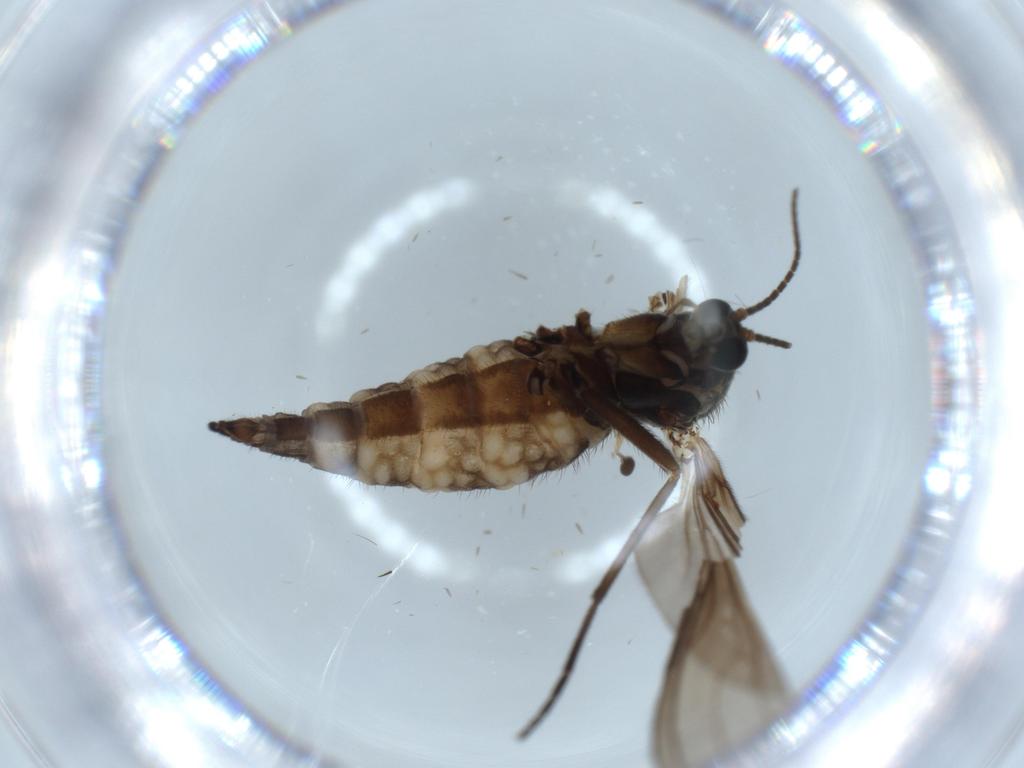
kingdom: Animalia
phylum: Arthropoda
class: Insecta
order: Diptera
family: Sciaridae
